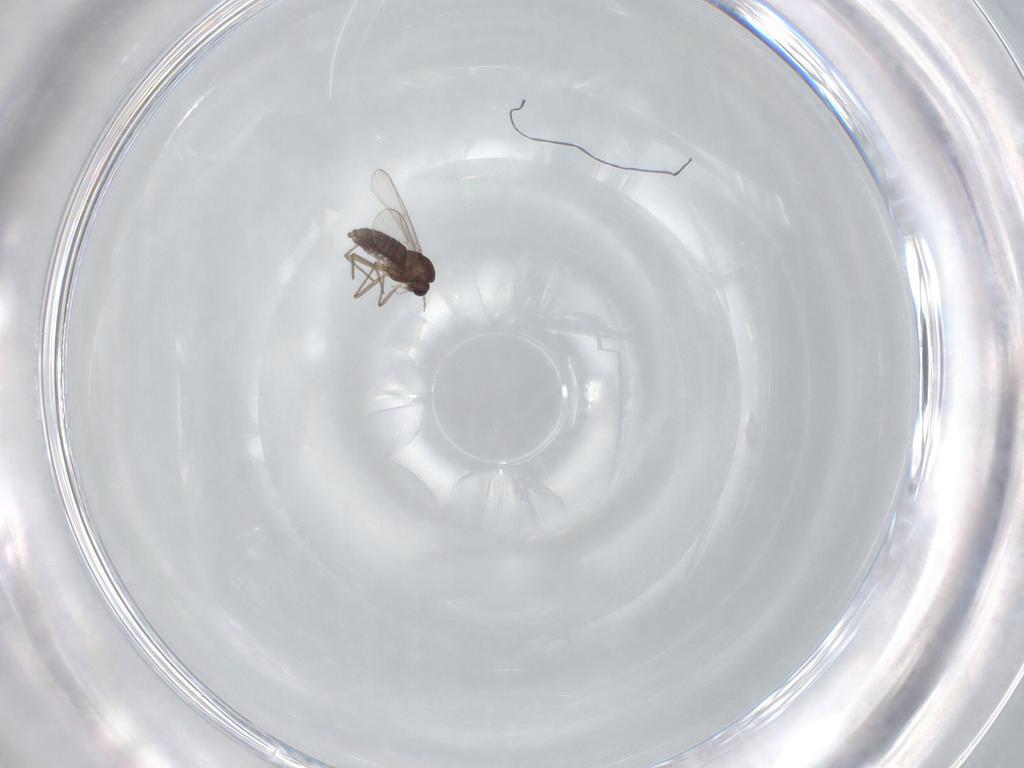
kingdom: Animalia
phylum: Arthropoda
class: Insecta
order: Diptera
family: Chironomidae
